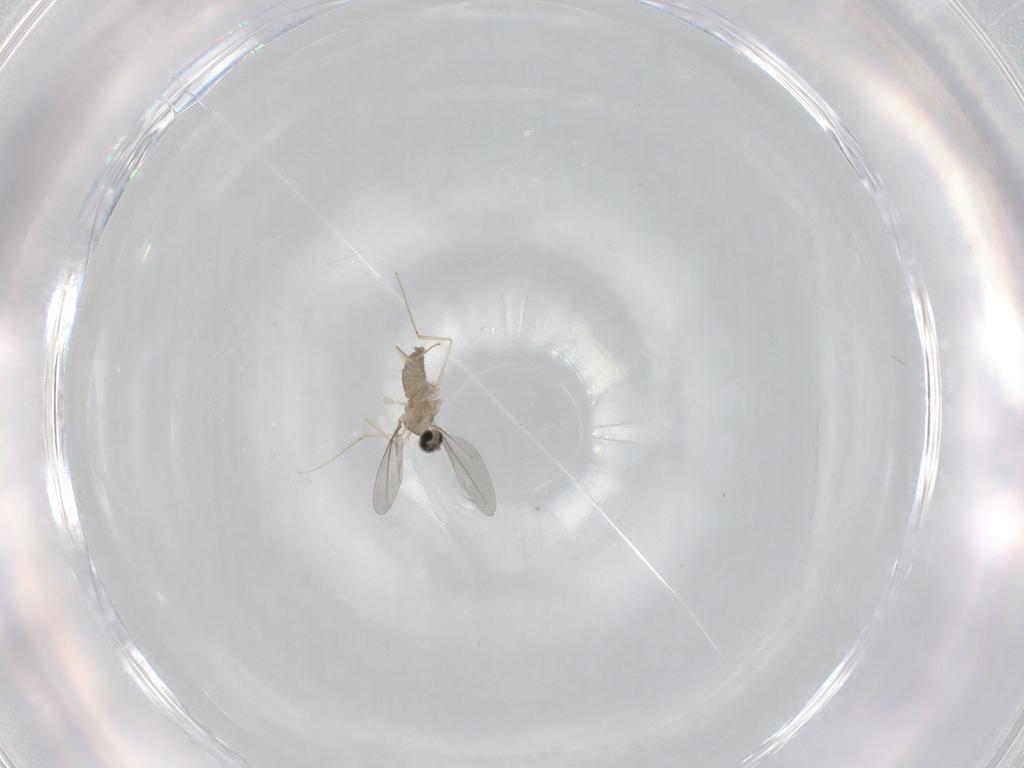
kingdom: Animalia
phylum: Arthropoda
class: Insecta
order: Diptera
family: Cecidomyiidae
